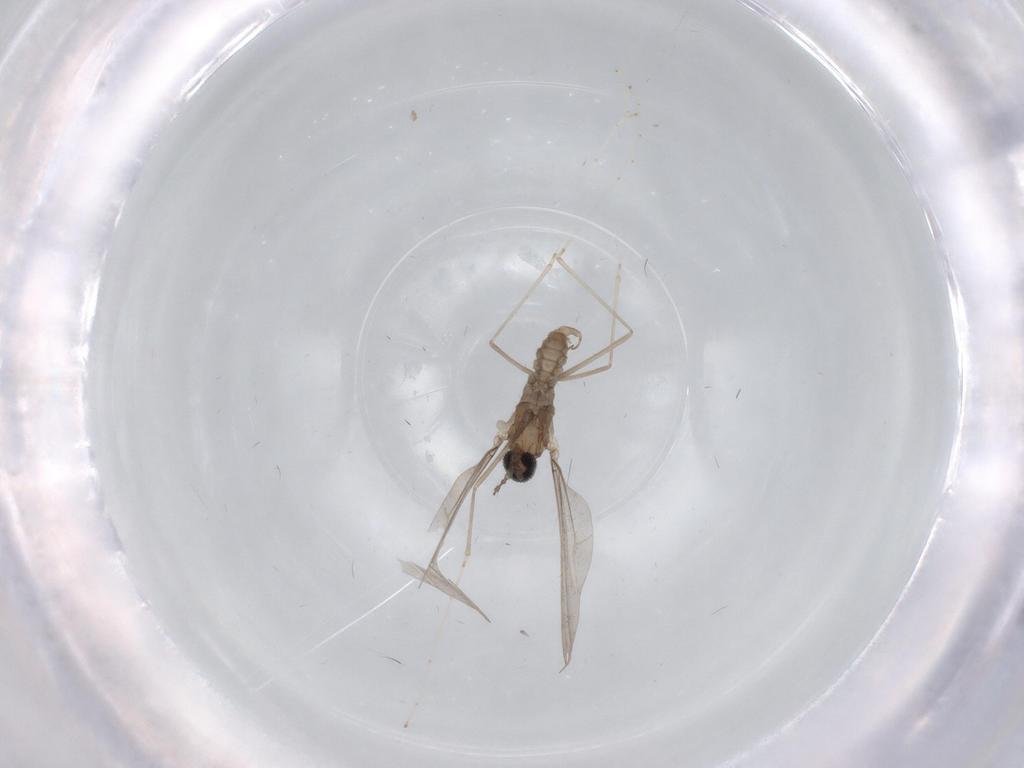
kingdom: Animalia
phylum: Arthropoda
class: Insecta
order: Diptera
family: Cecidomyiidae
